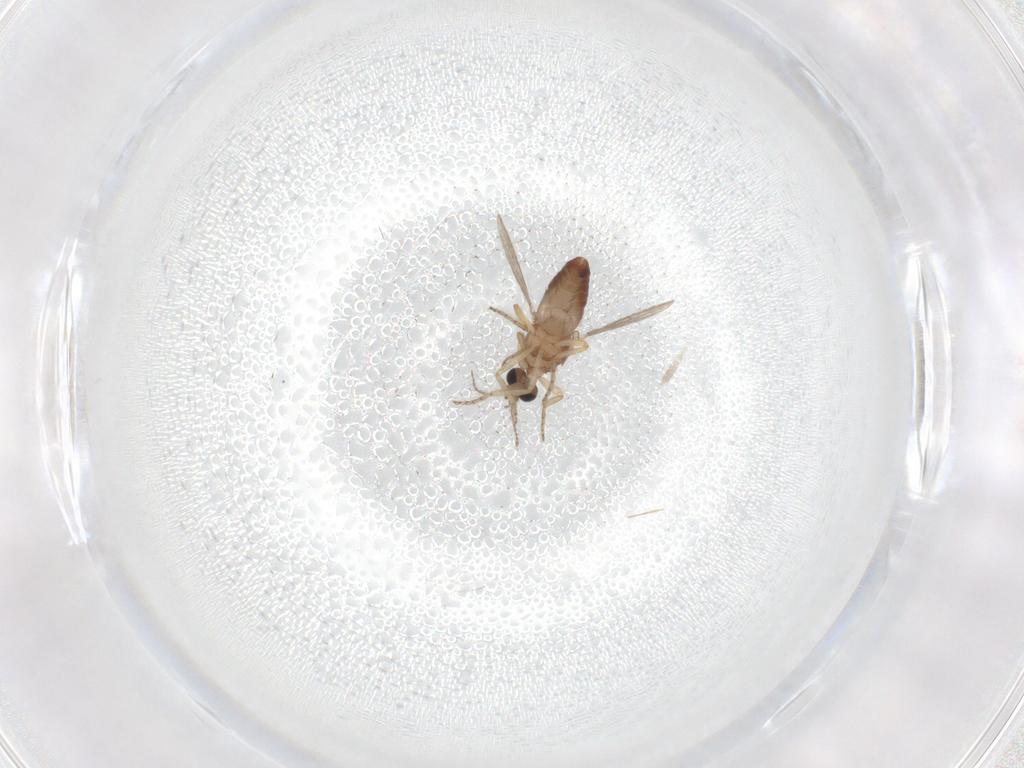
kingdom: Animalia
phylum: Arthropoda
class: Insecta
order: Diptera
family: Ceratopogonidae
